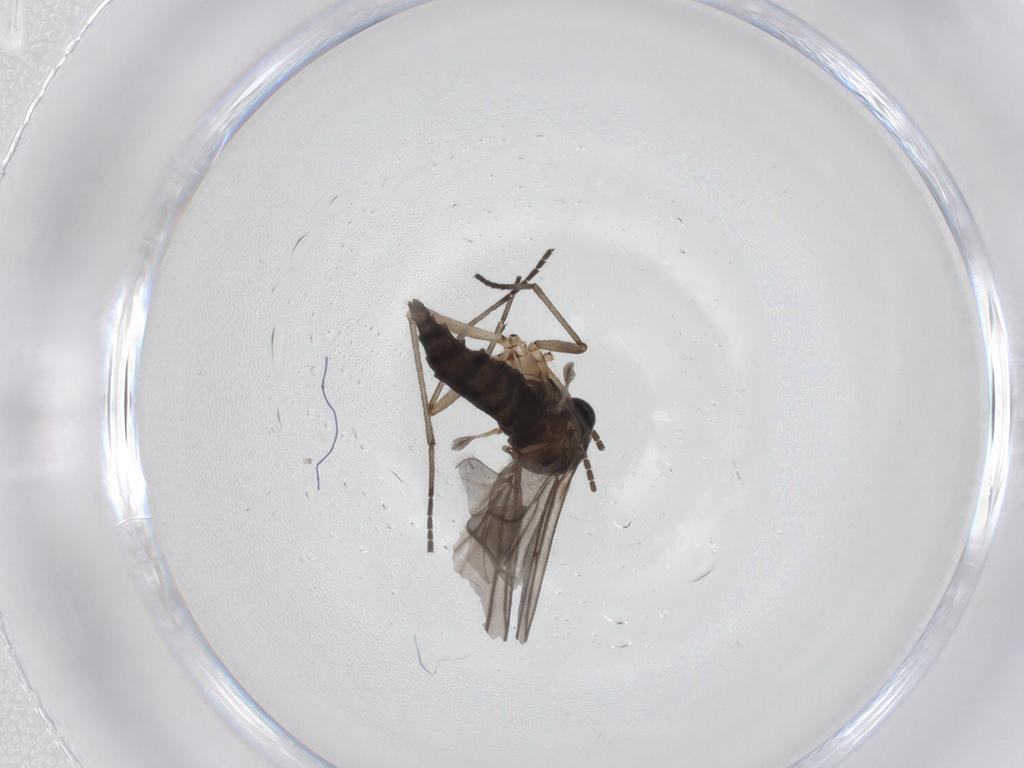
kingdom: Animalia
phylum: Arthropoda
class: Insecta
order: Diptera
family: Sciaridae
